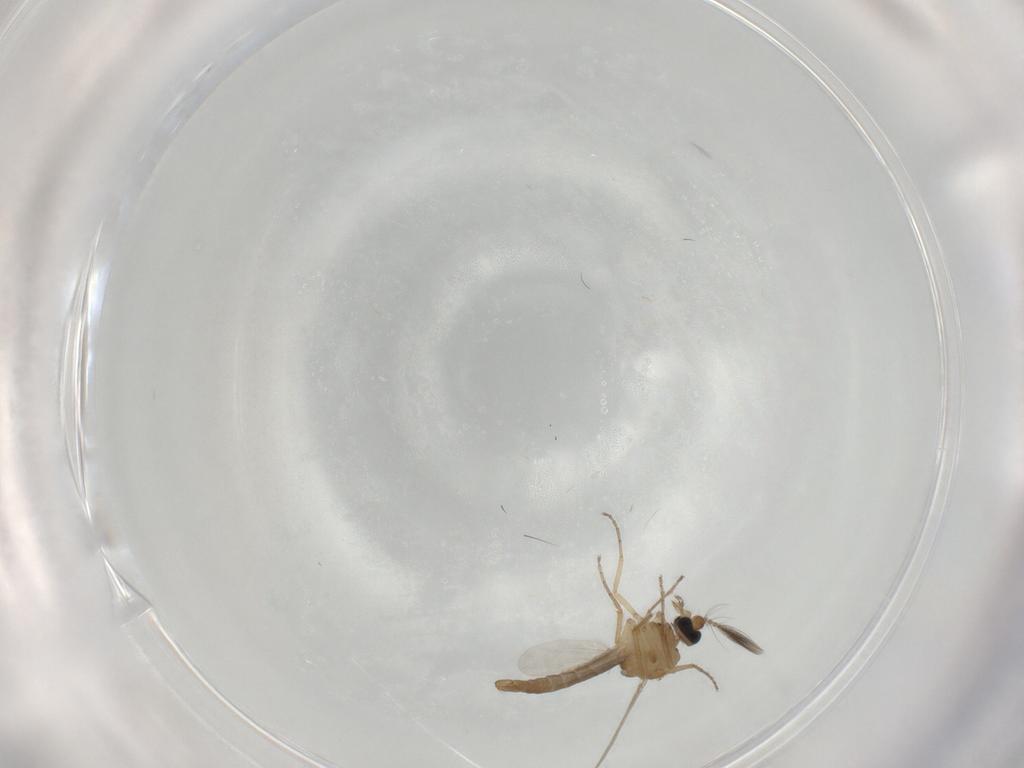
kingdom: Animalia
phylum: Arthropoda
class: Insecta
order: Diptera
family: Ceratopogonidae
